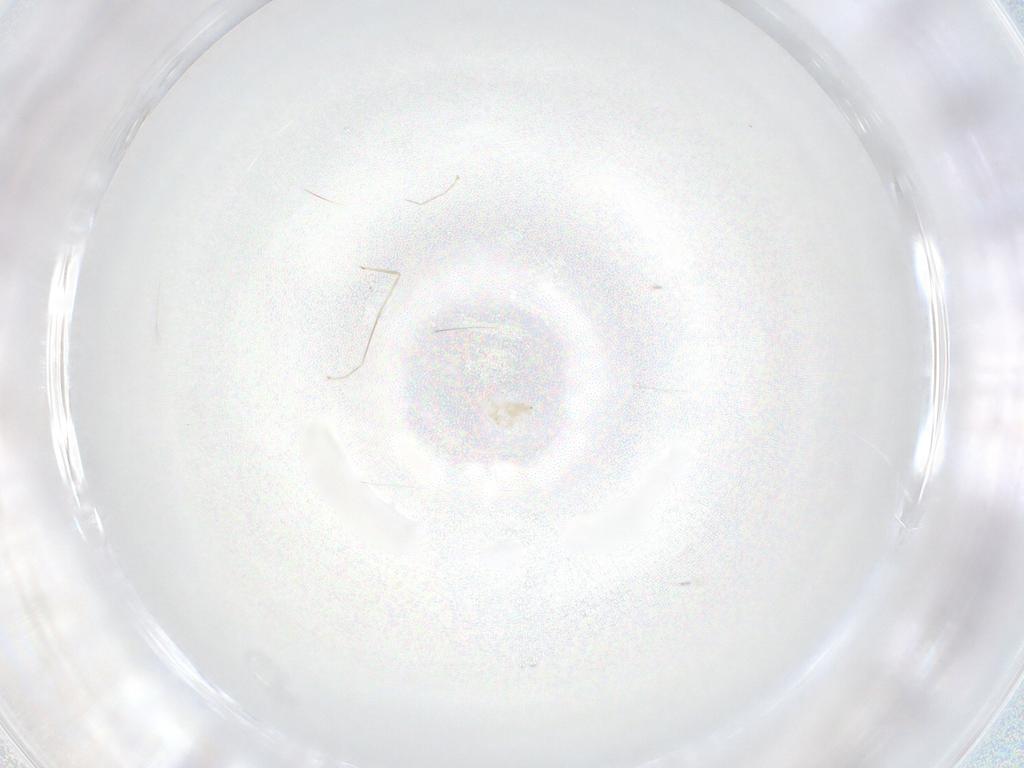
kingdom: Animalia
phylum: Arthropoda
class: Insecta
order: Diptera
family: Cecidomyiidae
